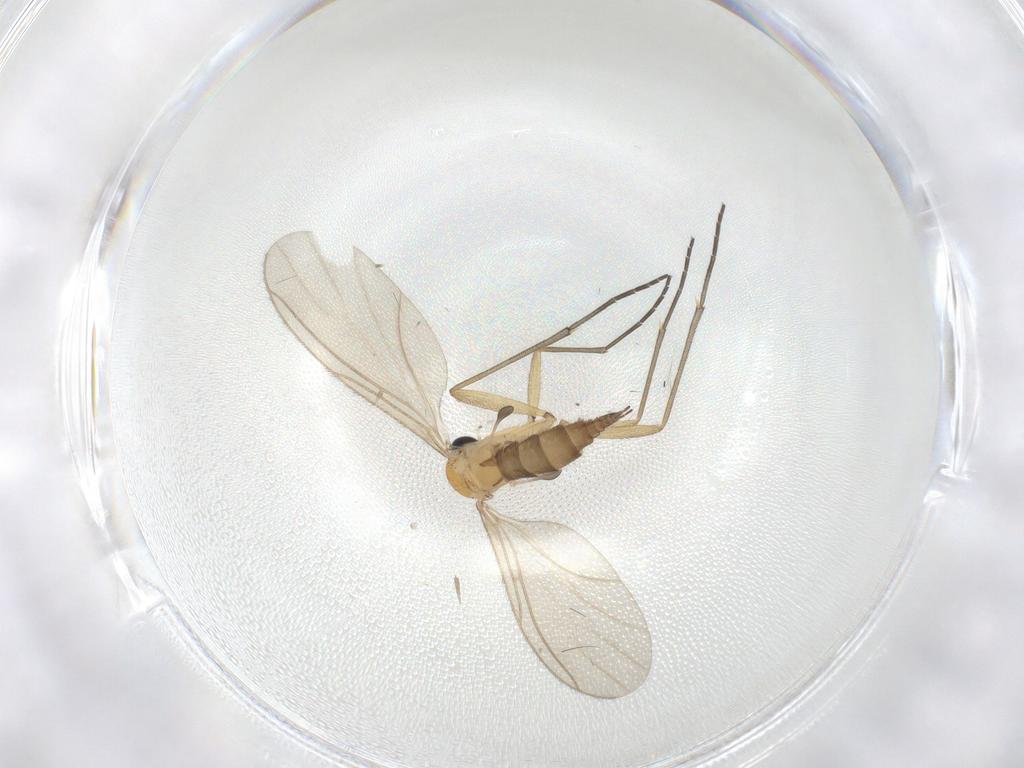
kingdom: Animalia
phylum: Arthropoda
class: Insecta
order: Diptera
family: Sciaridae
